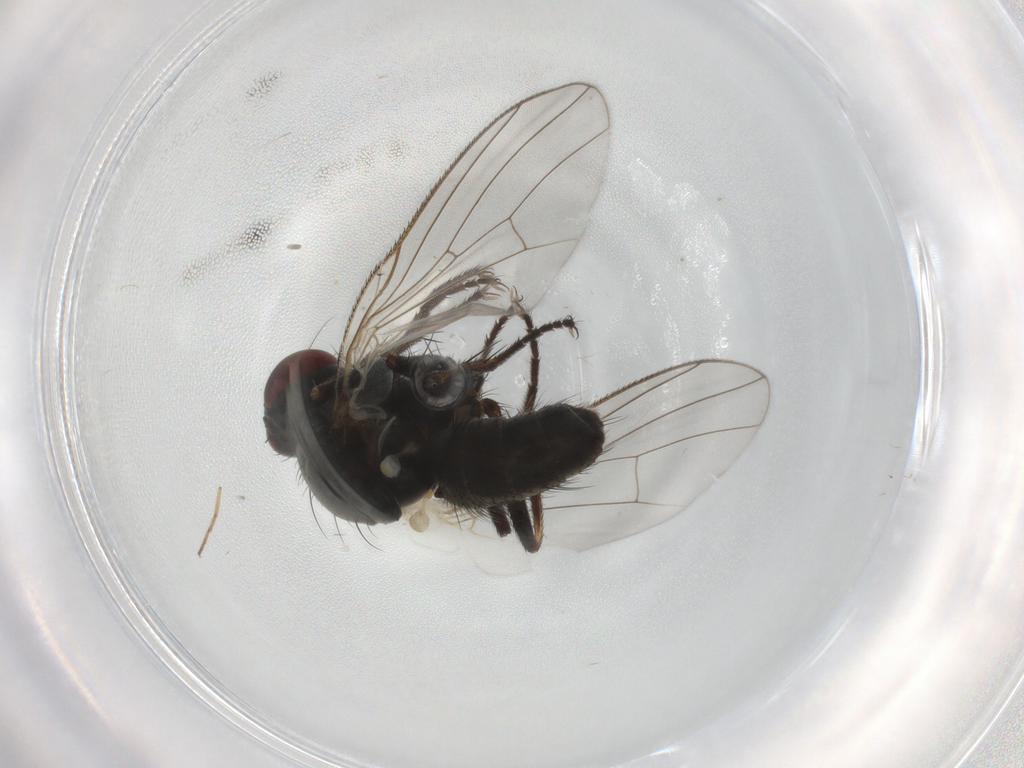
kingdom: Animalia
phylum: Arthropoda
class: Insecta
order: Diptera
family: Muscidae
